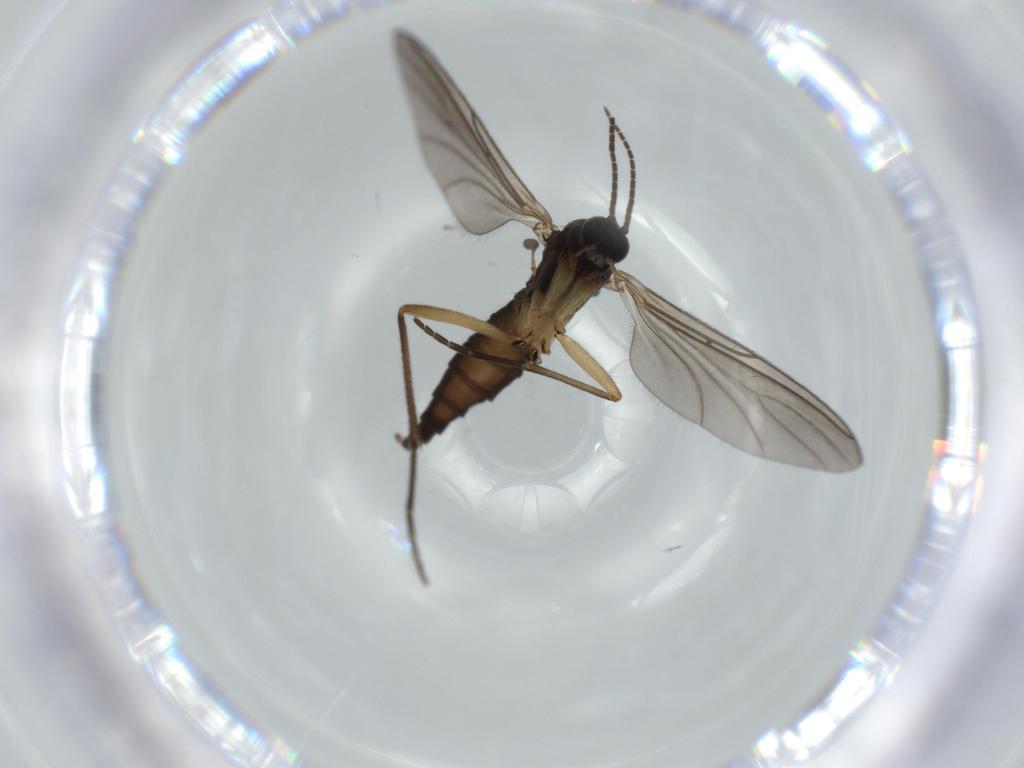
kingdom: Animalia
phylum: Arthropoda
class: Insecta
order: Diptera
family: Sciaridae
